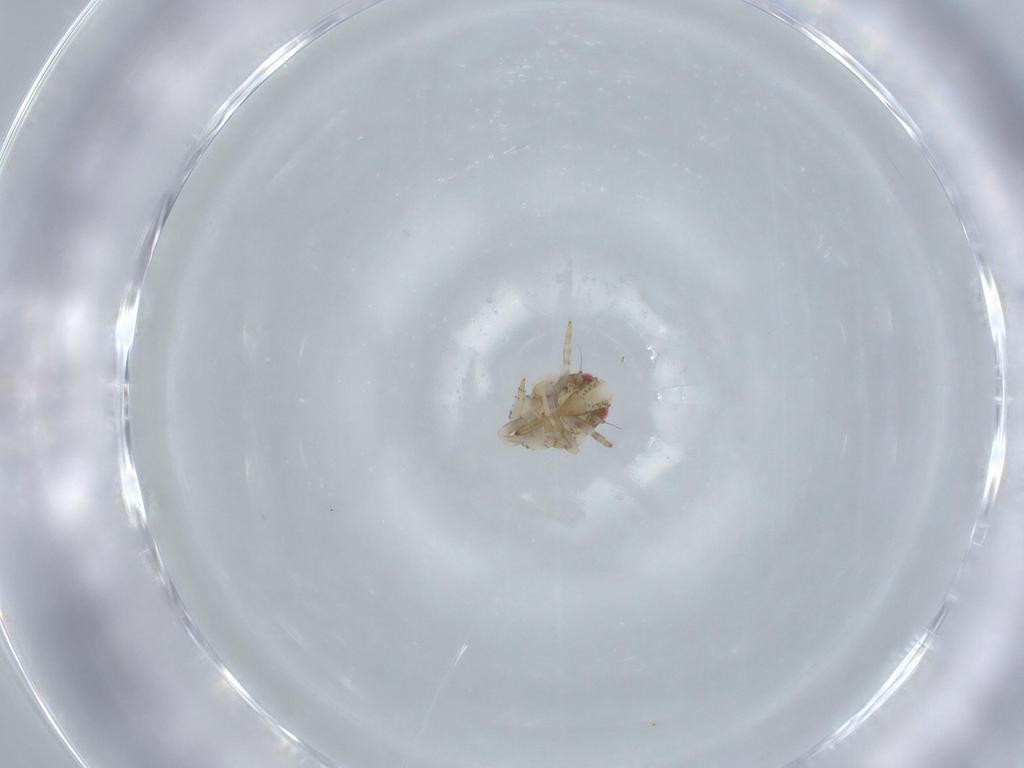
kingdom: Animalia
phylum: Arthropoda
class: Insecta
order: Hemiptera
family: Acanaloniidae
